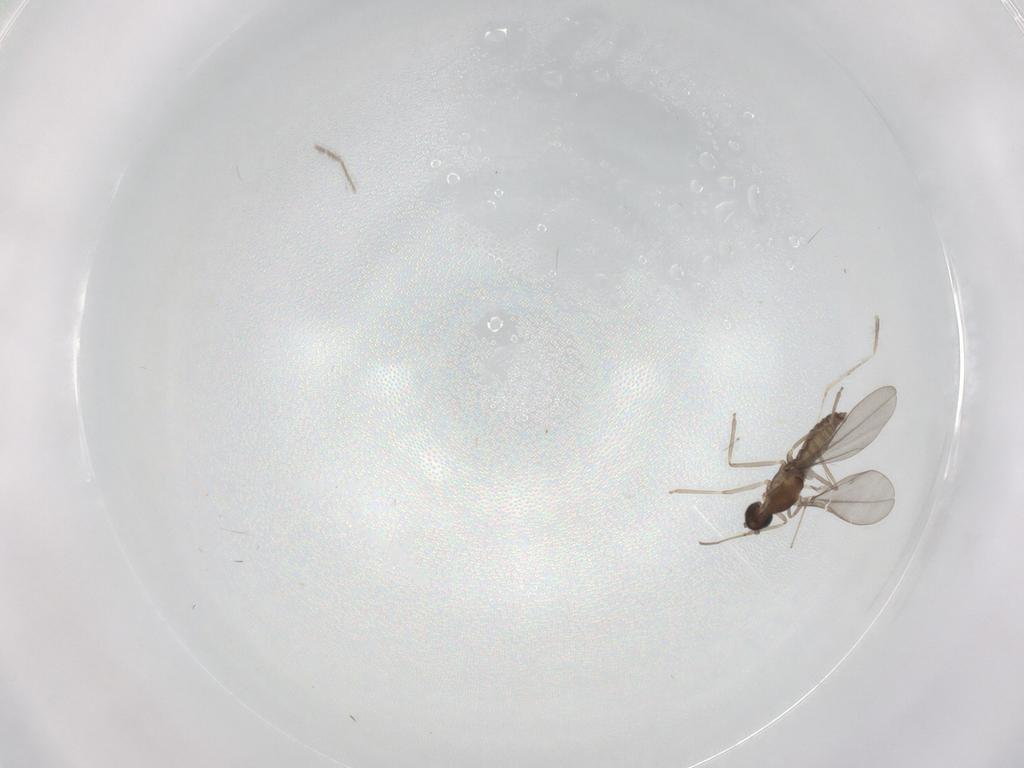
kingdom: Animalia
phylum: Arthropoda
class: Insecta
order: Diptera
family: Cecidomyiidae
